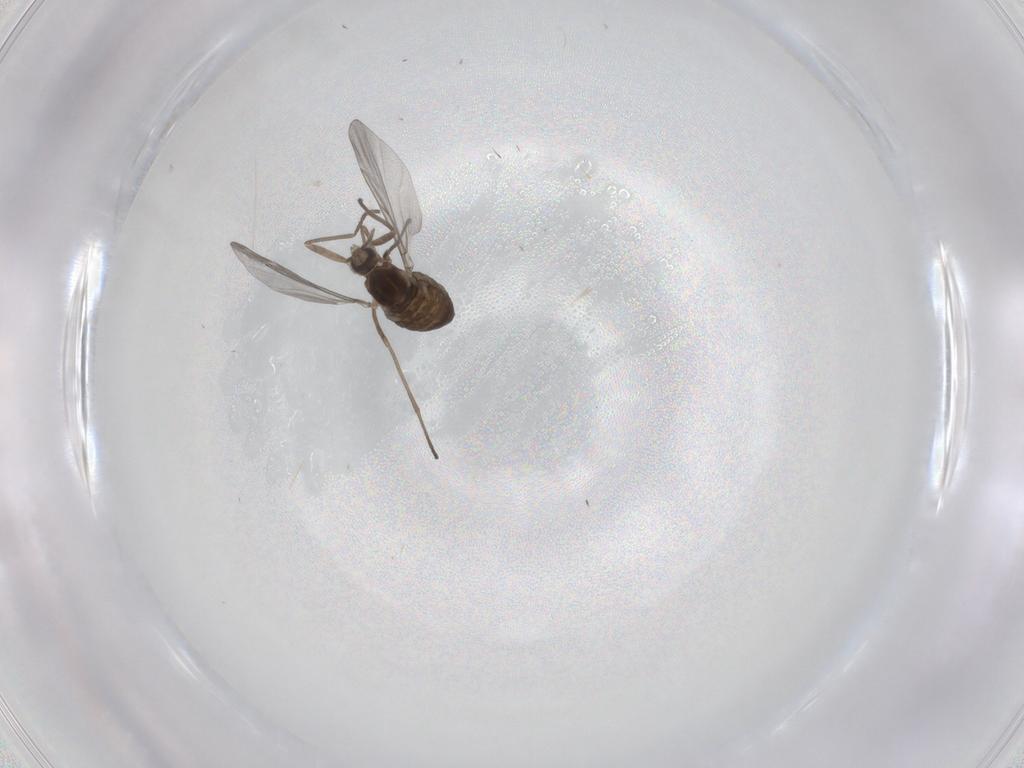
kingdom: Animalia
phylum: Arthropoda
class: Insecta
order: Diptera
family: Cecidomyiidae
